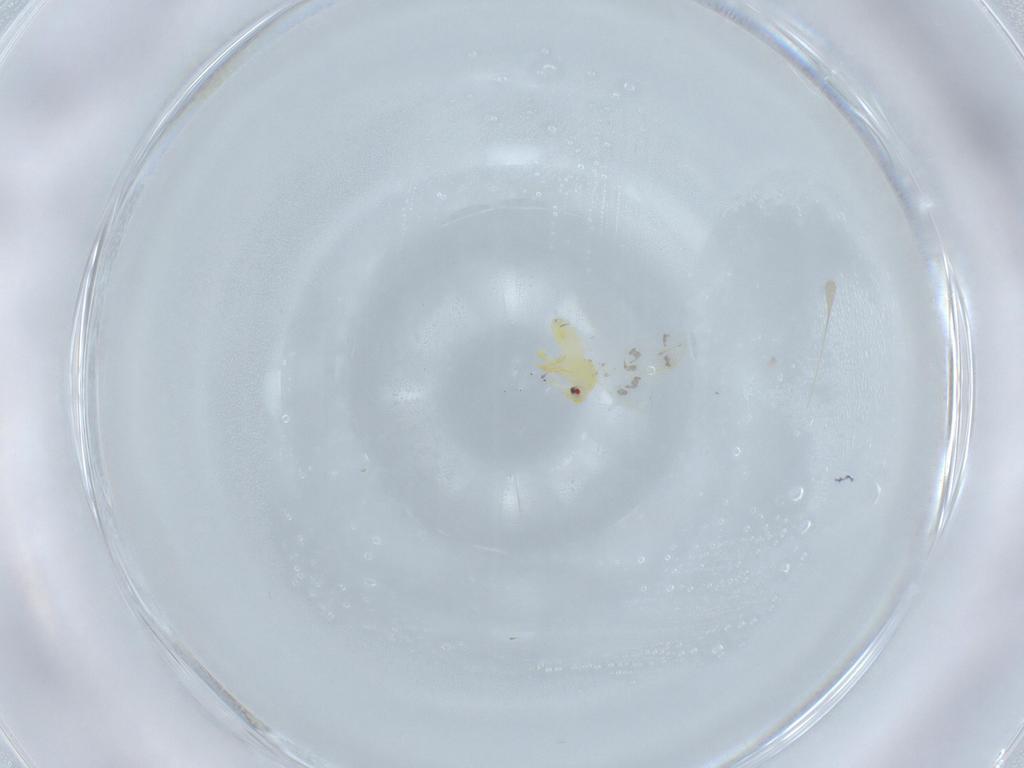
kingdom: Animalia
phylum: Arthropoda
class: Insecta
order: Hemiptera
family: Aleyrodidae
